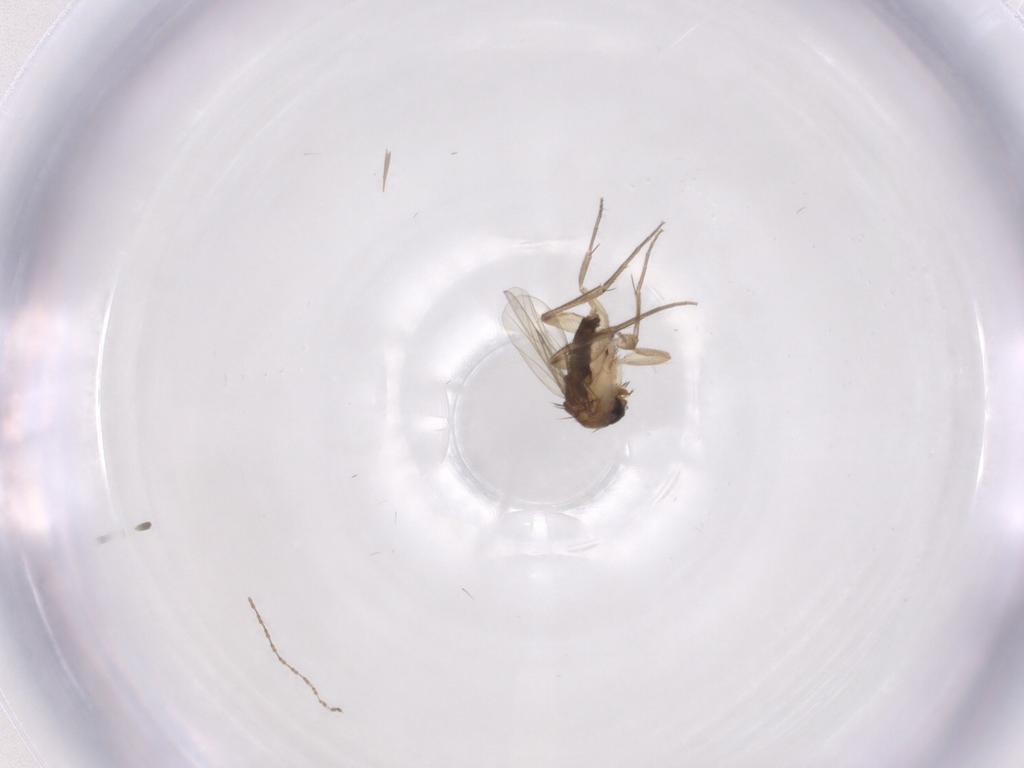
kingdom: Animalia
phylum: Arthropoda
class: Insecta
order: Diptera
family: Phoridae
